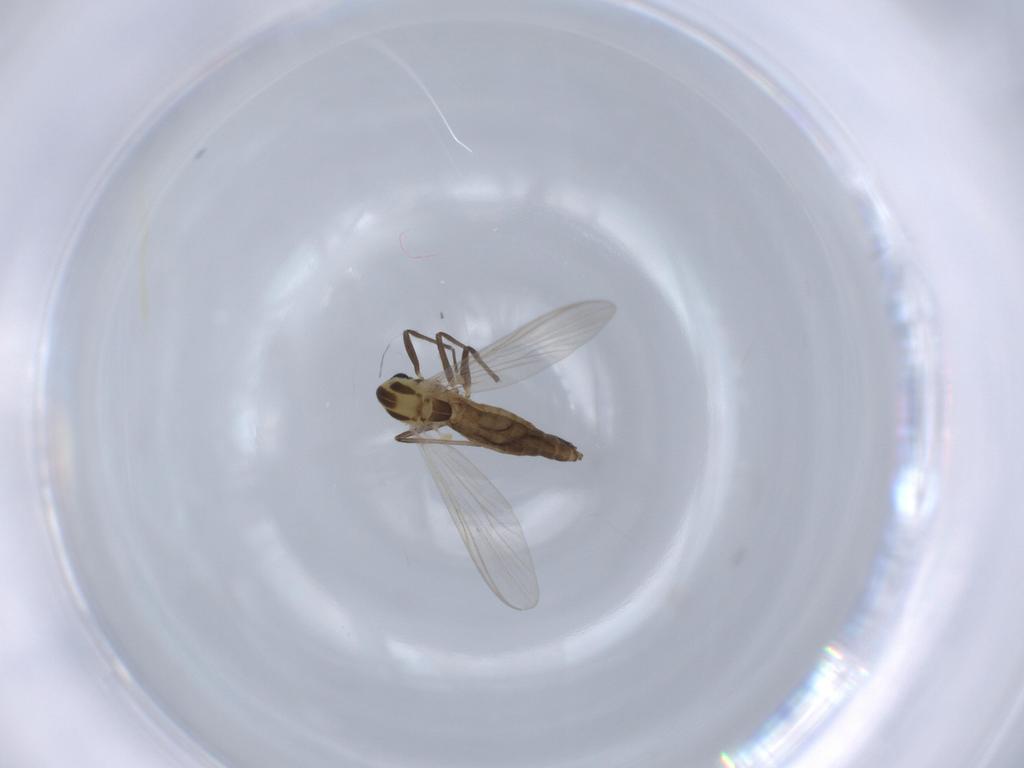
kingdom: Animalia
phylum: Arthropoda
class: Insecta
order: Diptera
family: Chironomidae
